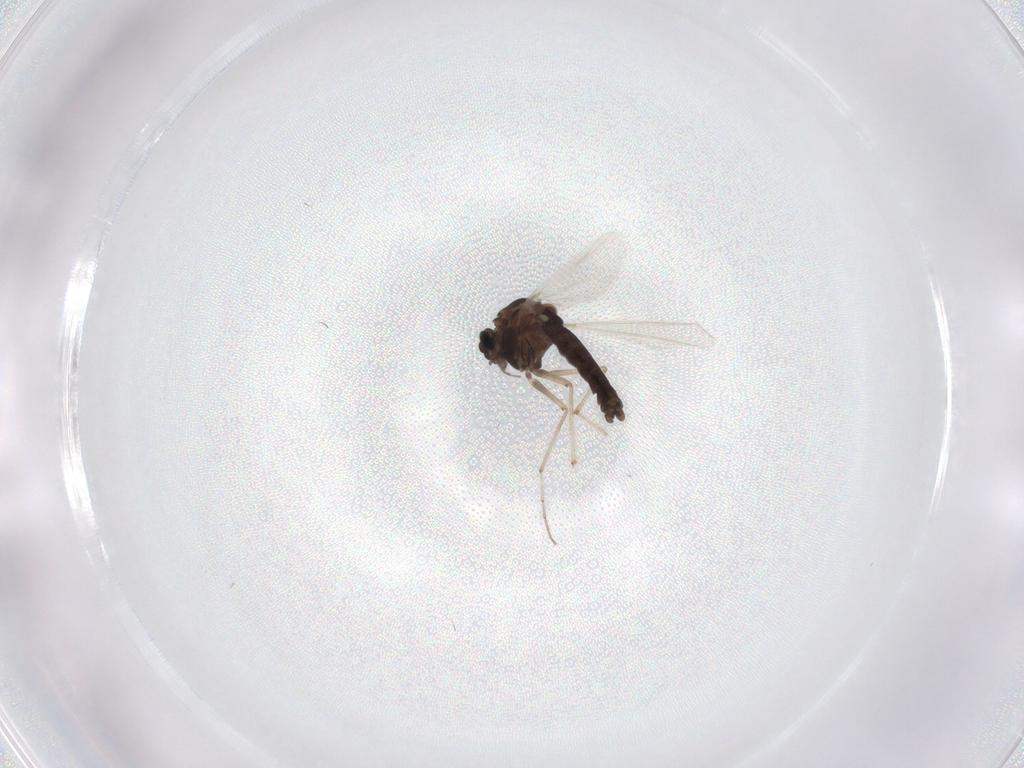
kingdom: Animalia
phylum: Arthropoda
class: Insecta
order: Diptera
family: Chironomidae
